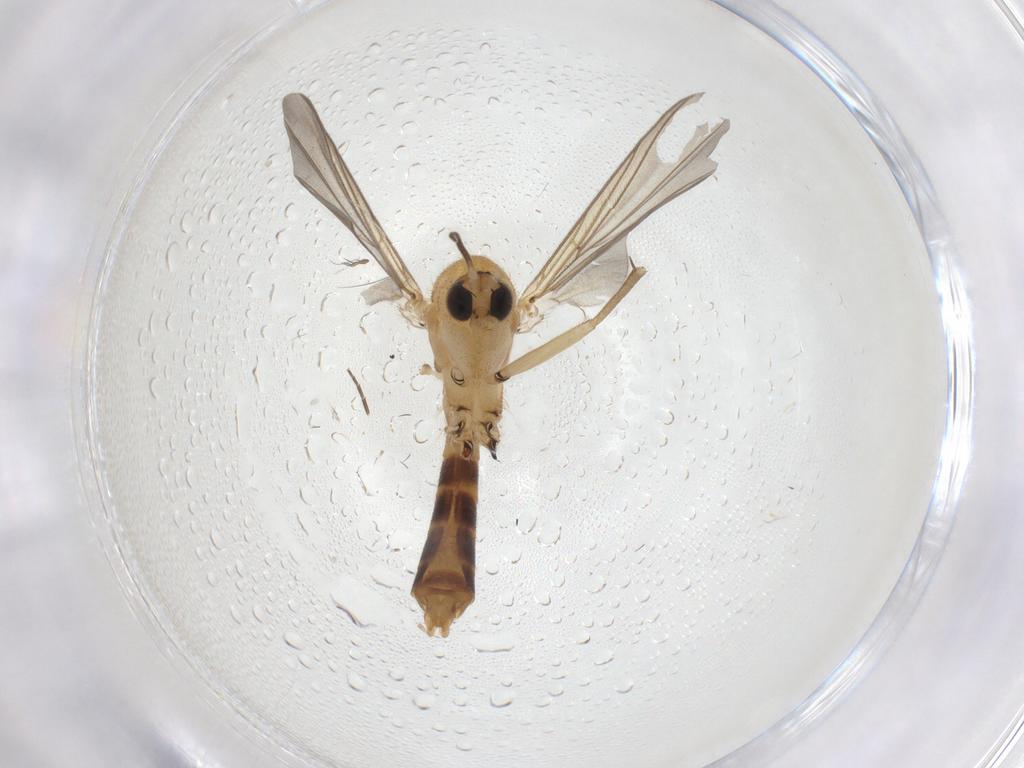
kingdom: Animalia
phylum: Arthropoda
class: Insecta
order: Diptera
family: Mycetophilidae
